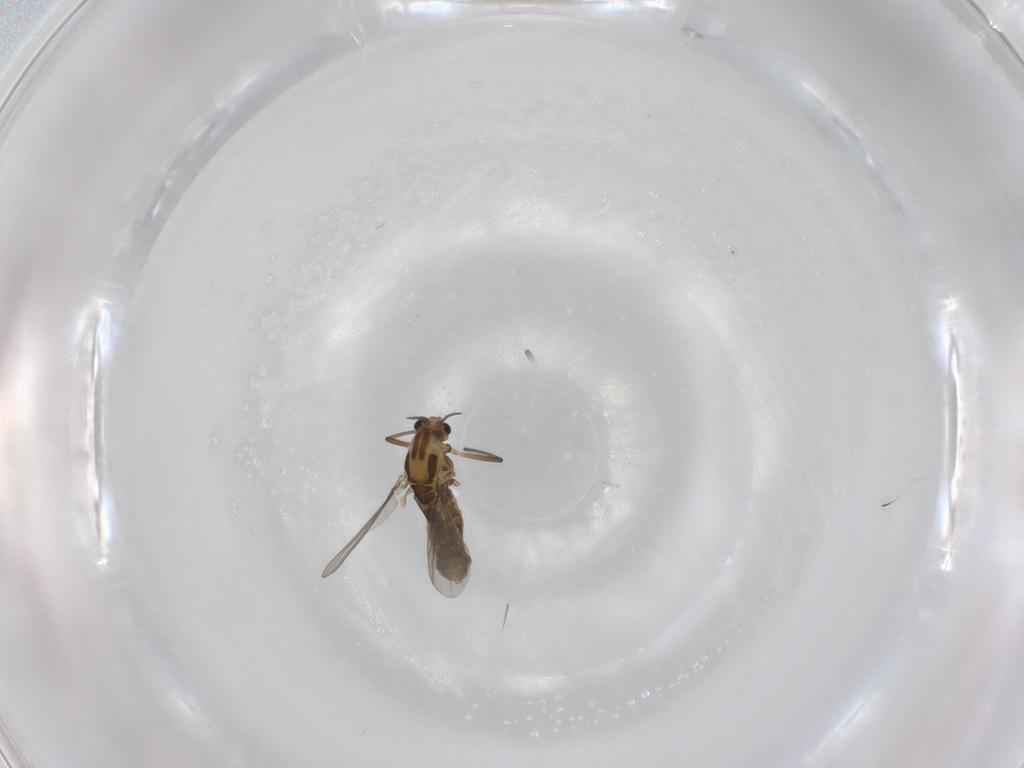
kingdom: Animalia
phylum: Arthropoda
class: Insecta
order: Diptera
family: Chironomidae
